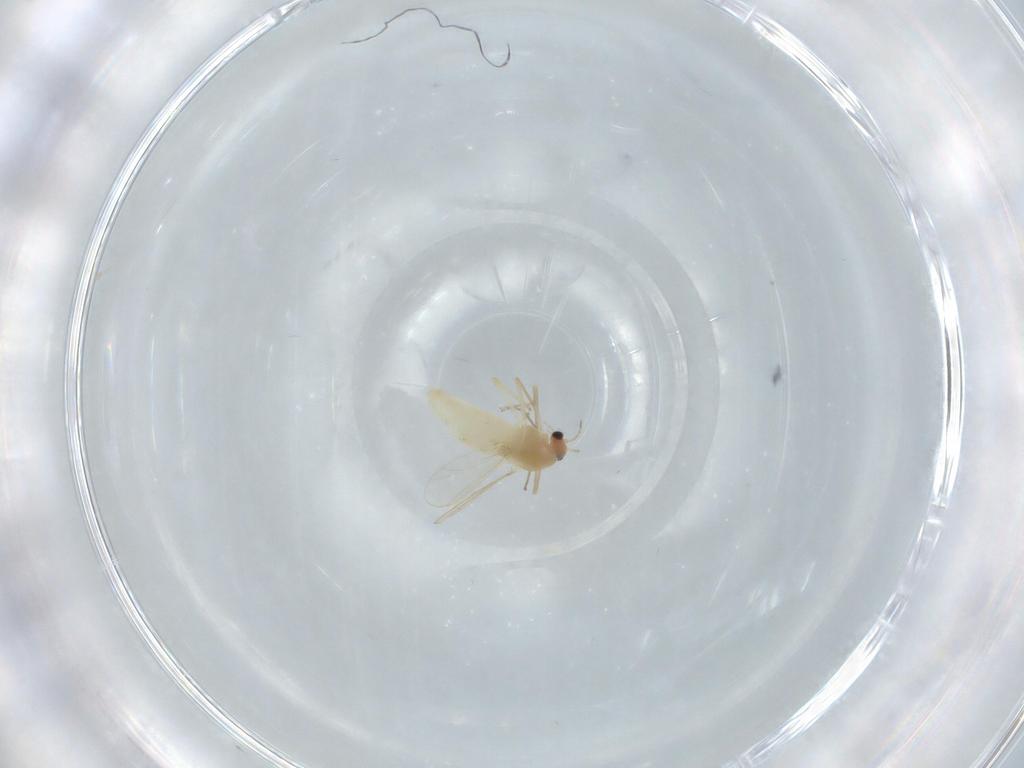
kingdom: Animalia
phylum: Arthropoda
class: Insecta
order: Diptera
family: Chironomidae
